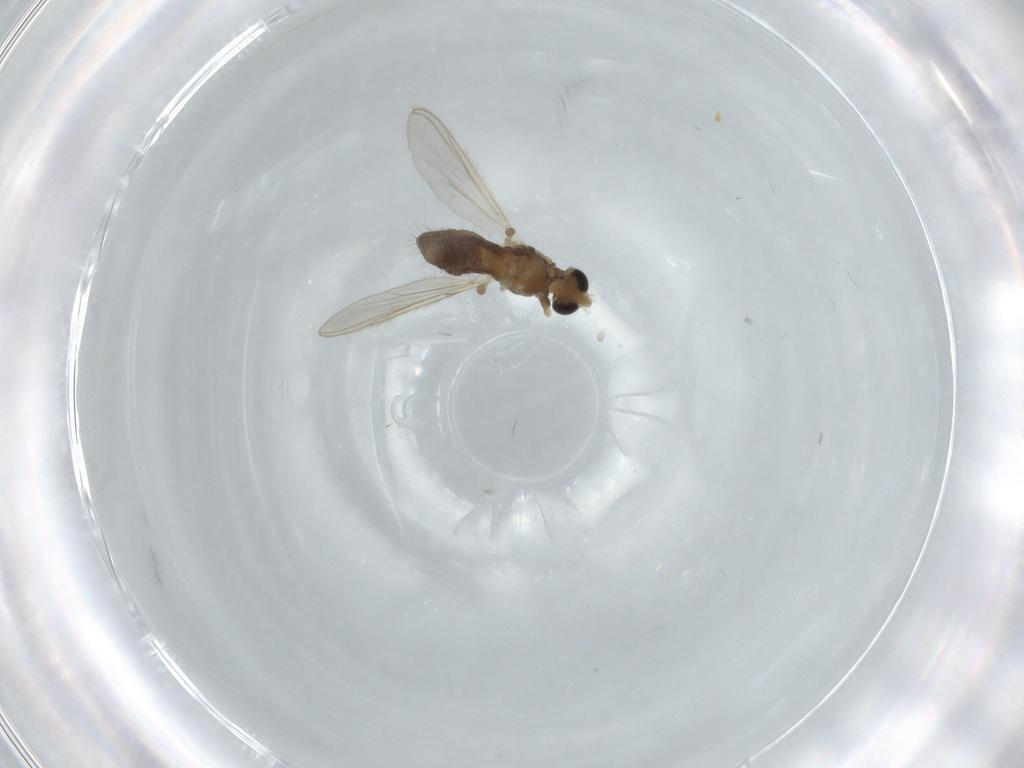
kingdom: Animalia
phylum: Arthropoda
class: Insecta
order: Diptera
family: Chironomidae
